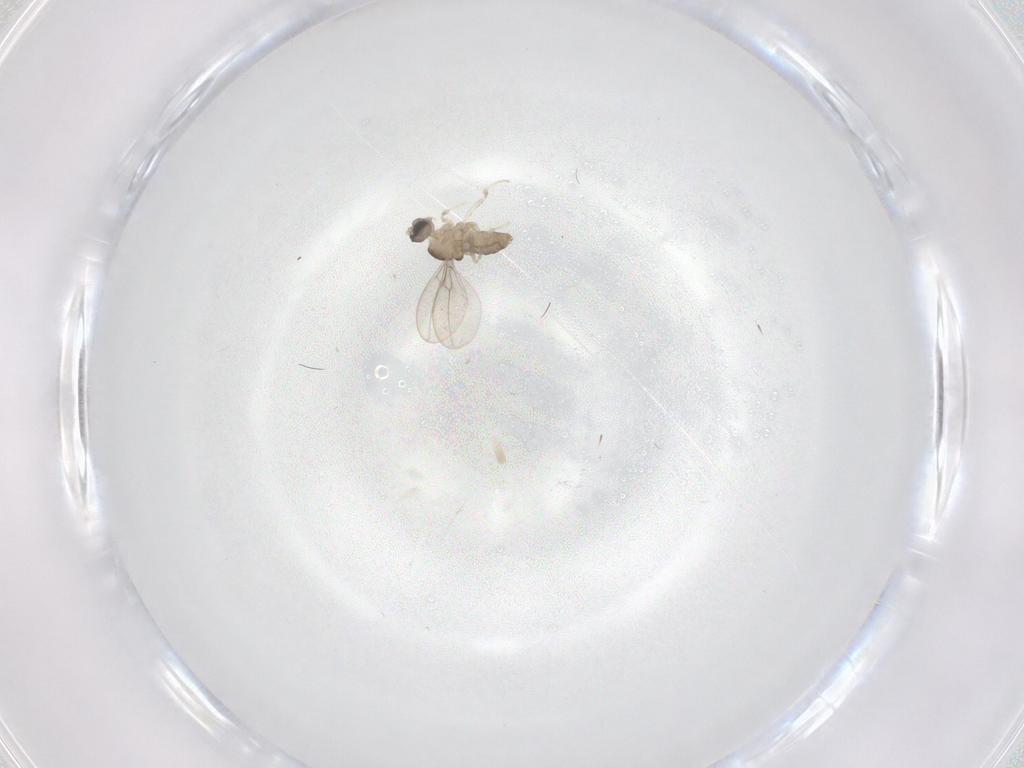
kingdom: Animalia
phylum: Arthropoda
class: Insecta
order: Diptera
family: Cecidomyiidae
